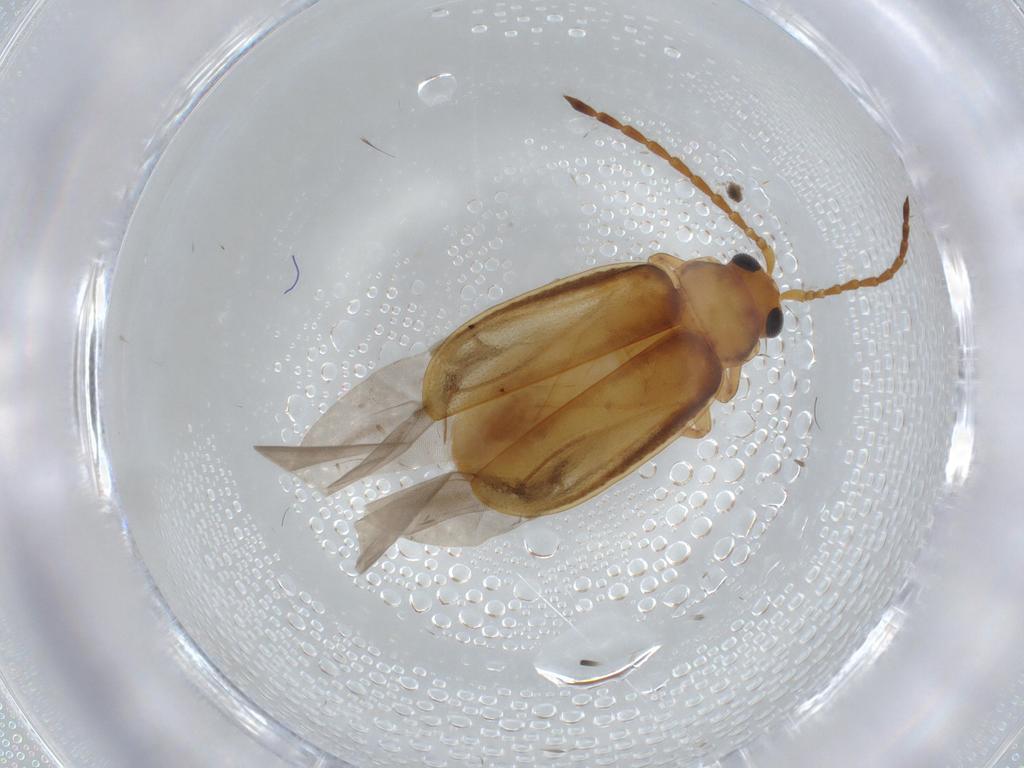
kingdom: Animalia
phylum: Arthropoda
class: Insecta
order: Coleoptera
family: Chrysomelidae
